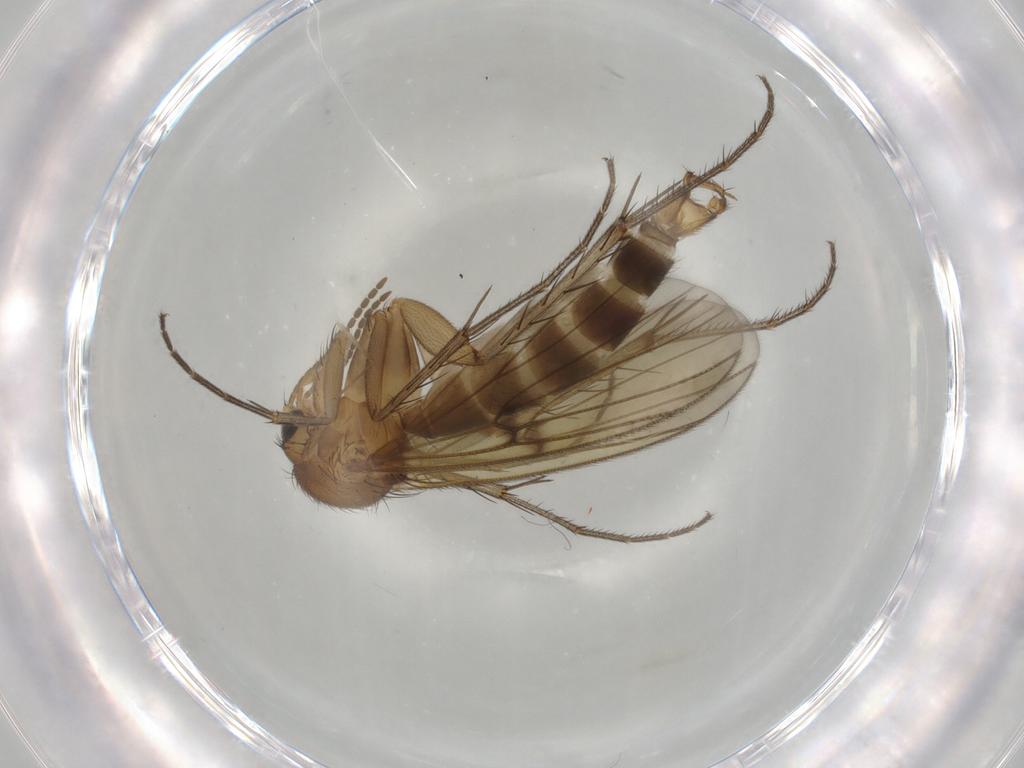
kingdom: Animalia
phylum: Arthropoda
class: Insecta
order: Diptera
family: Chironomidae
